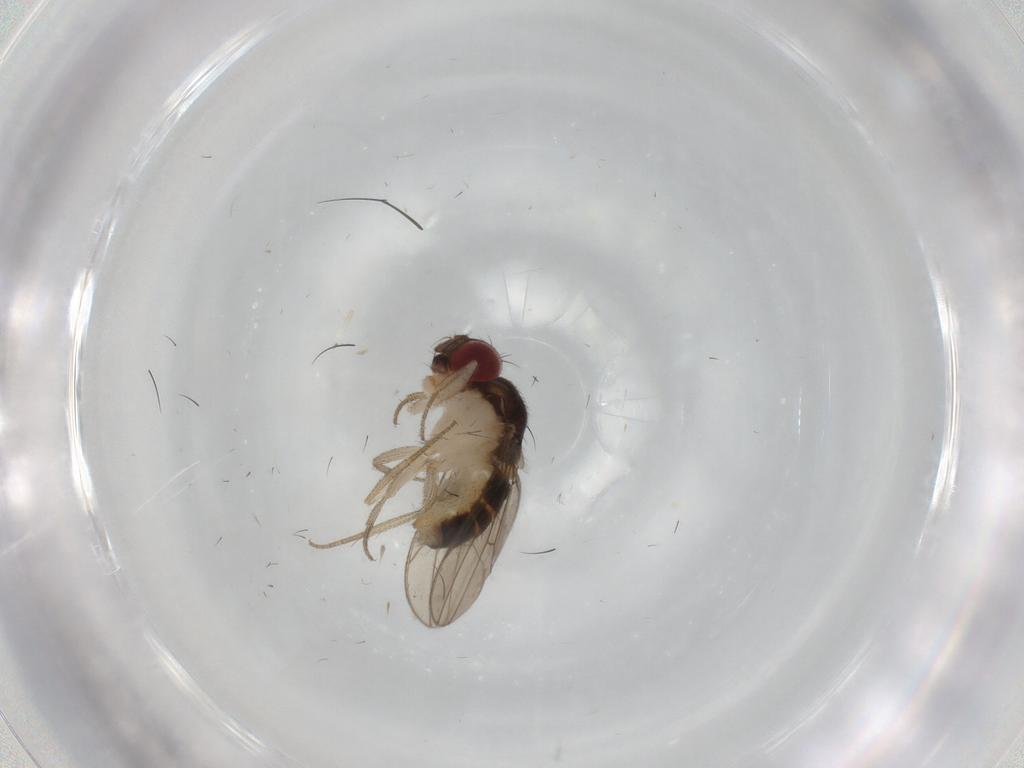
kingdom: Animalia
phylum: Arthropoda
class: Insecta
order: Diptera
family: Drosophilidae
